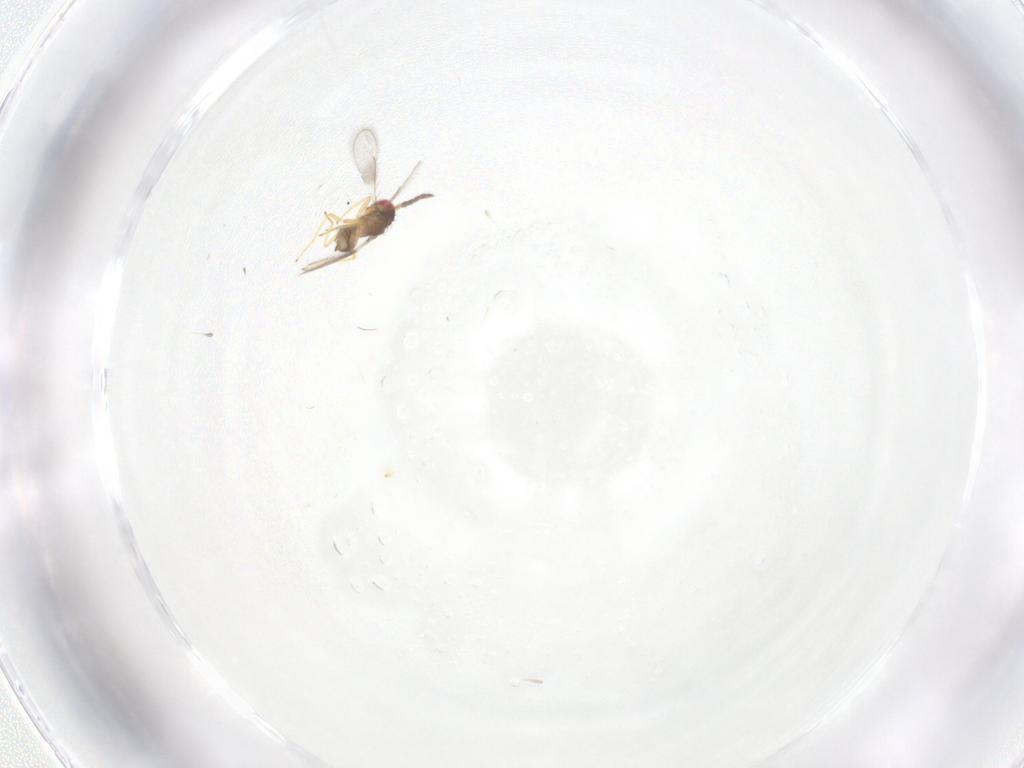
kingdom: Animalia
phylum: Arthropoda
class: Insecta
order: Hymenoptera
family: Eulophidae
